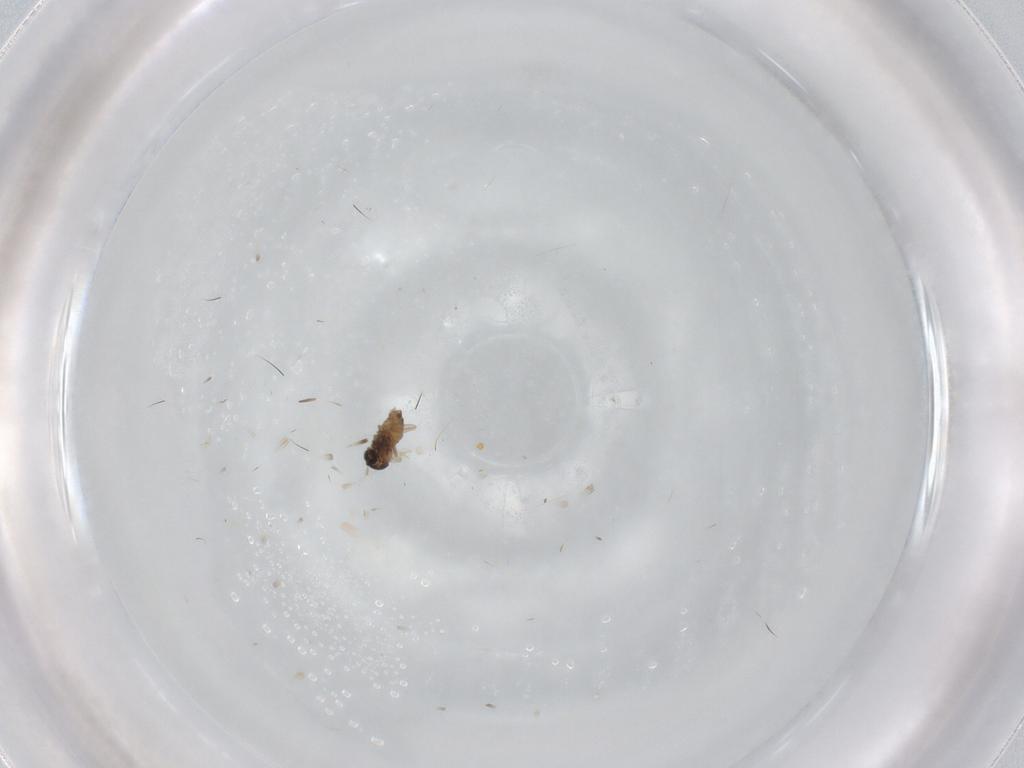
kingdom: Animalia
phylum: Arthropoda
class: Insecta
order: Diptera
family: Cecidomyiidae
